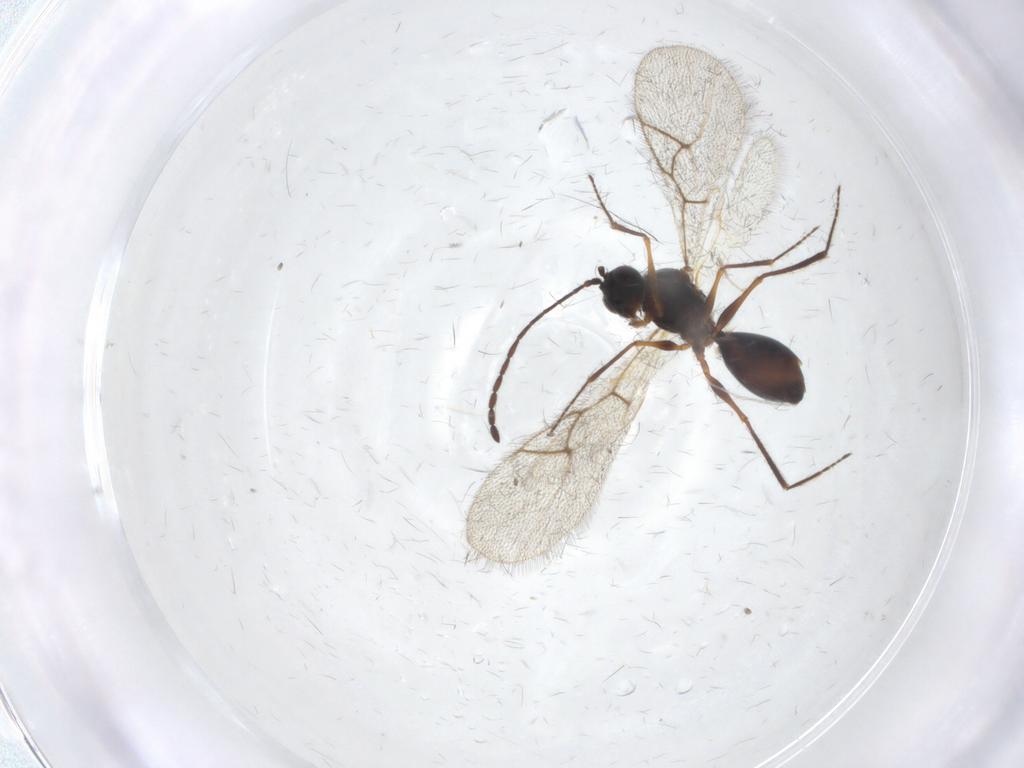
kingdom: Animalia
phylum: Arthropoda
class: Insecta
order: Hymenoptera
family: Figitidae
